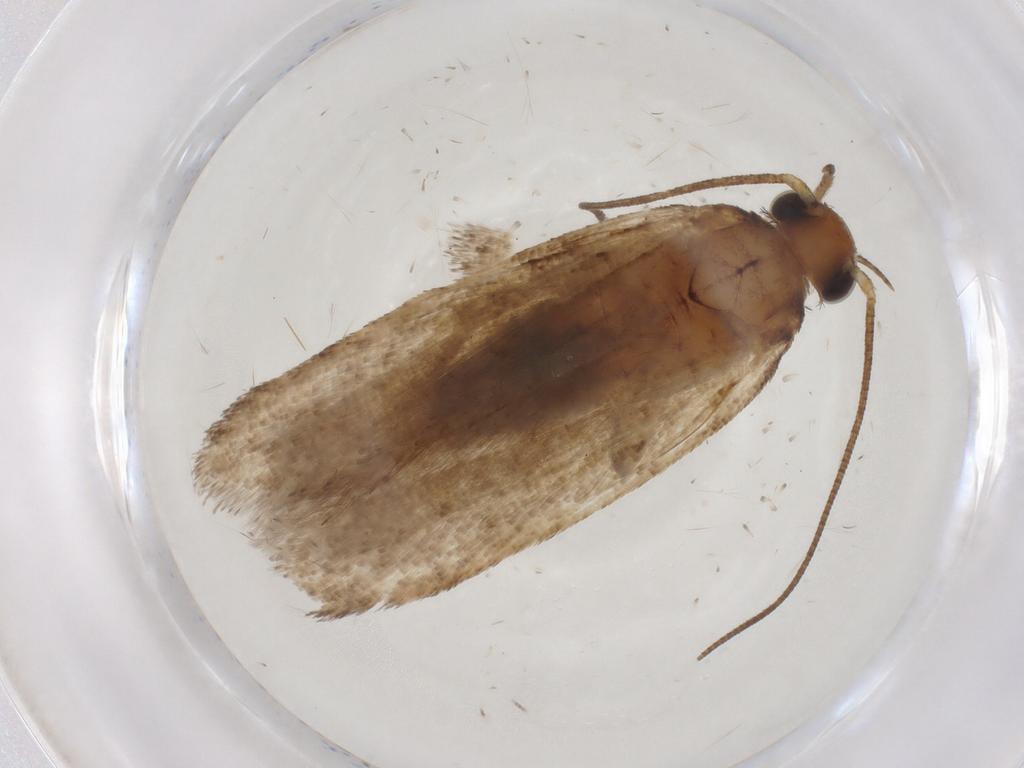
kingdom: Animalia
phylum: Arthropoda
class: Insecta
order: Lepidoptera
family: Gelechiidae
